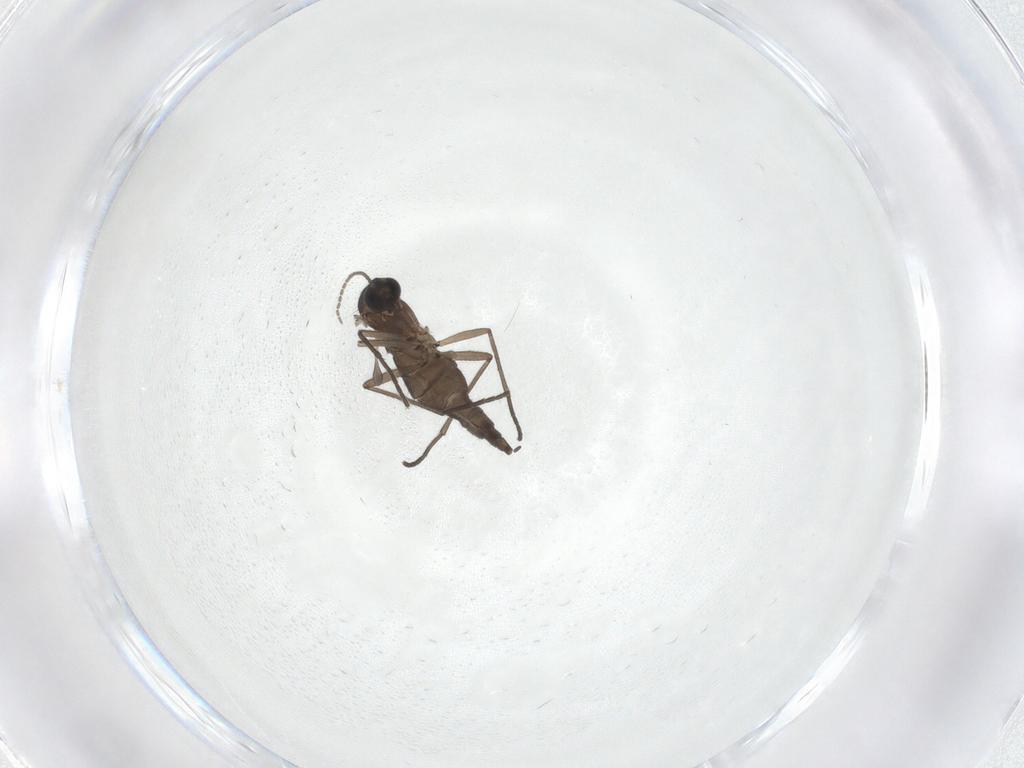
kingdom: Animalia
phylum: Arthropoda
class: Insecta
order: Diptera
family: Sciaridae
